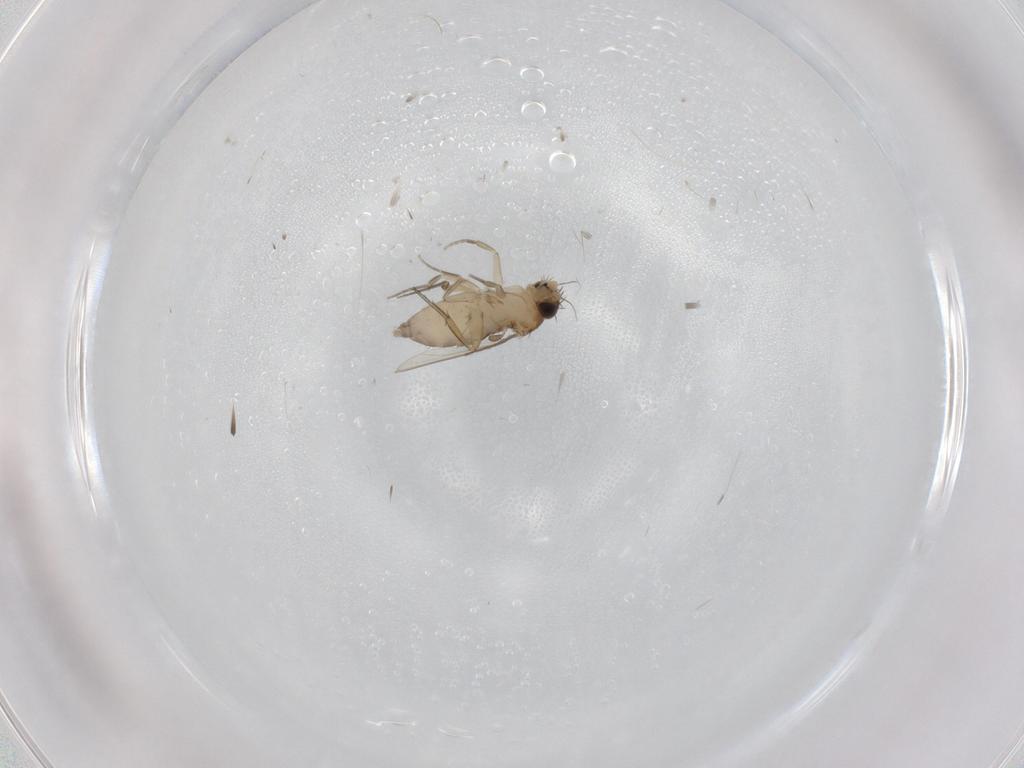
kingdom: Animalia
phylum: Arthropoda
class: Insecta
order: Diptera
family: Phoridae
